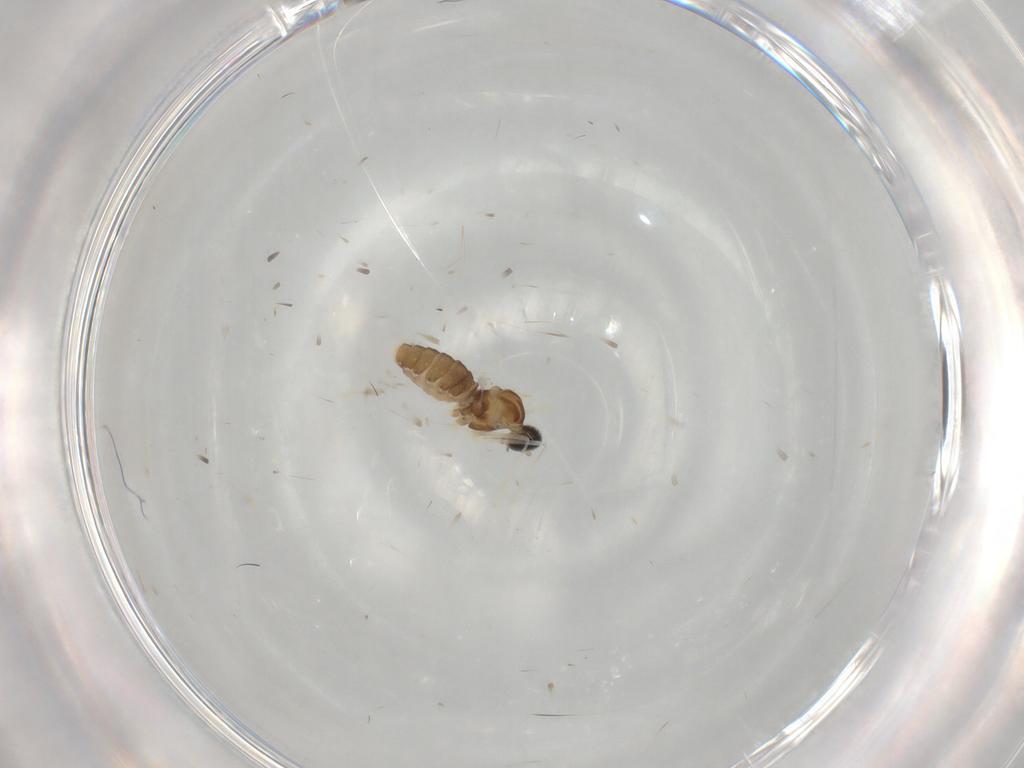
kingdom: Animalia
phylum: Arthropoda
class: Insecta
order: Diptera
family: Cecidomyiidae
